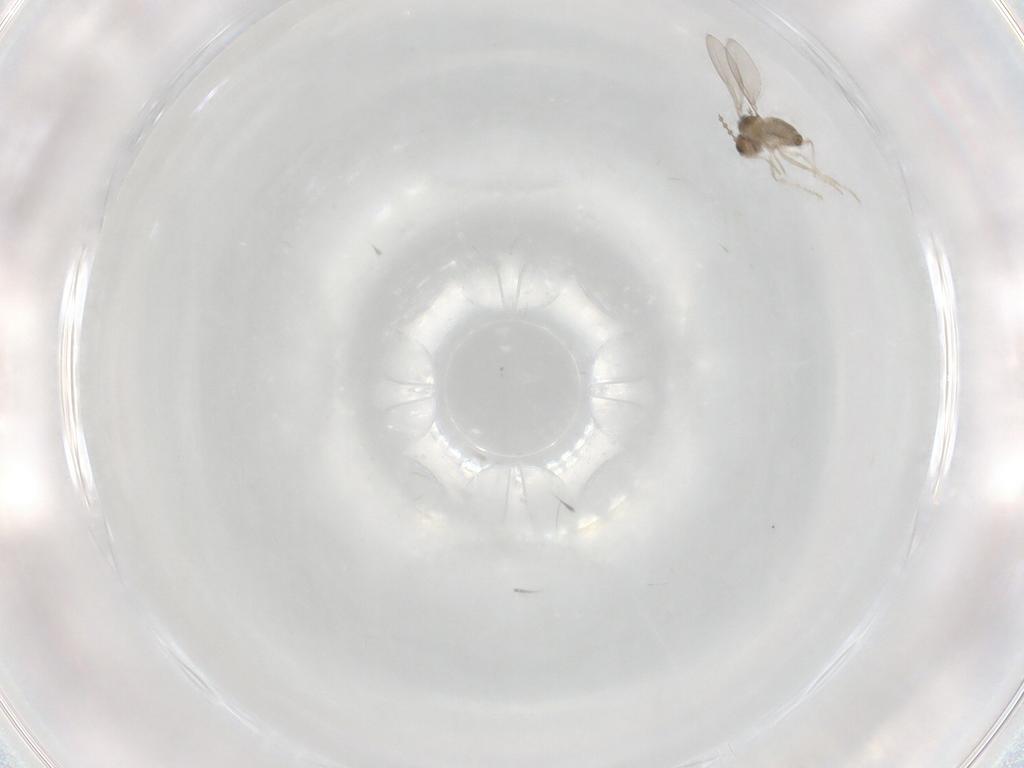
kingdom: Animalia
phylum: Arthropoda
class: Insecta
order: Diptera
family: Cecidomyiidae
